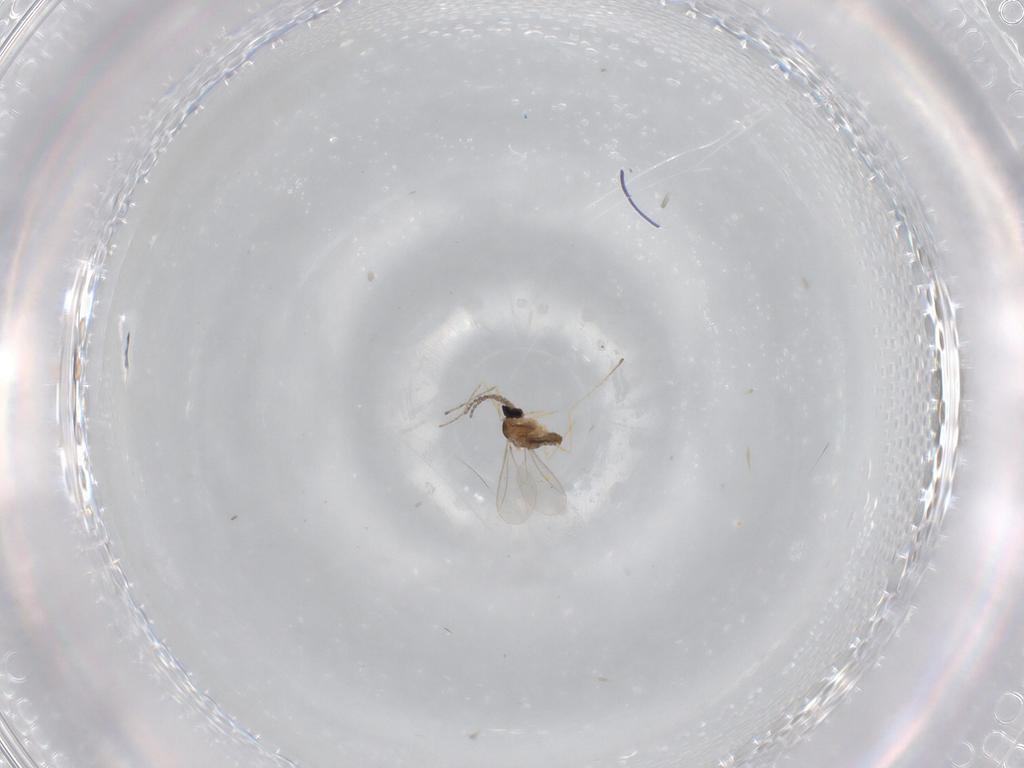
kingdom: Animalia
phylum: Arthropoda
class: Insecta
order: Diptera
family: Cecidomyiidae
